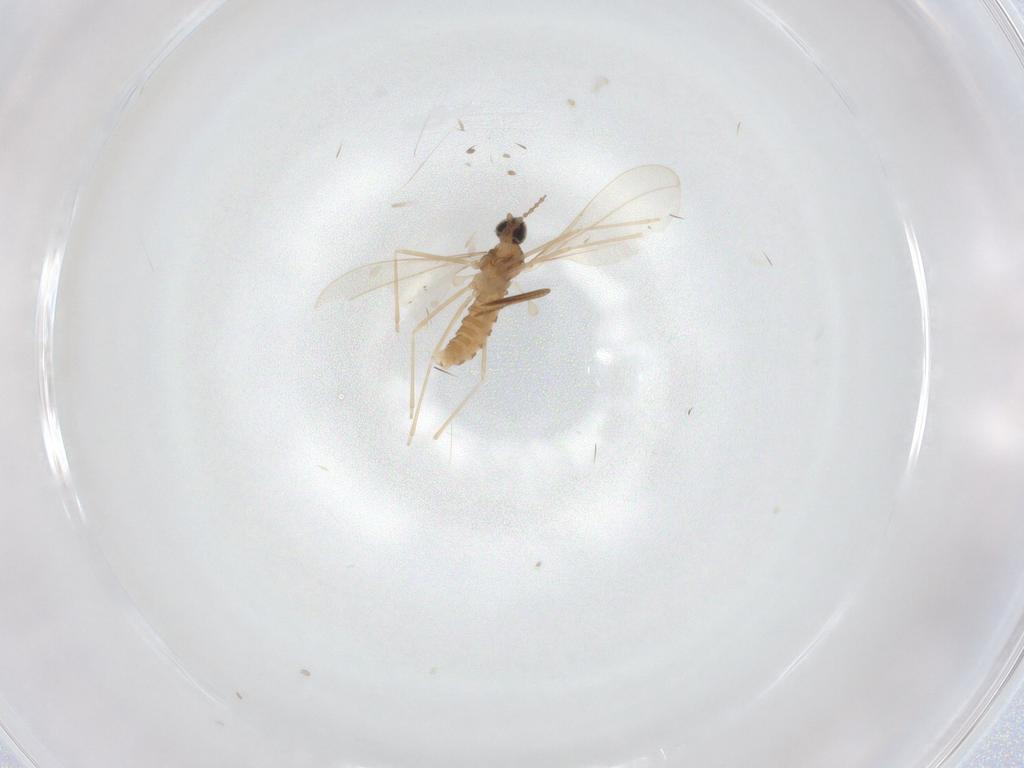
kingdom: Animalia
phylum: Arthropoda
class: Insecta
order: Diptera
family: Cecidomyiidae
